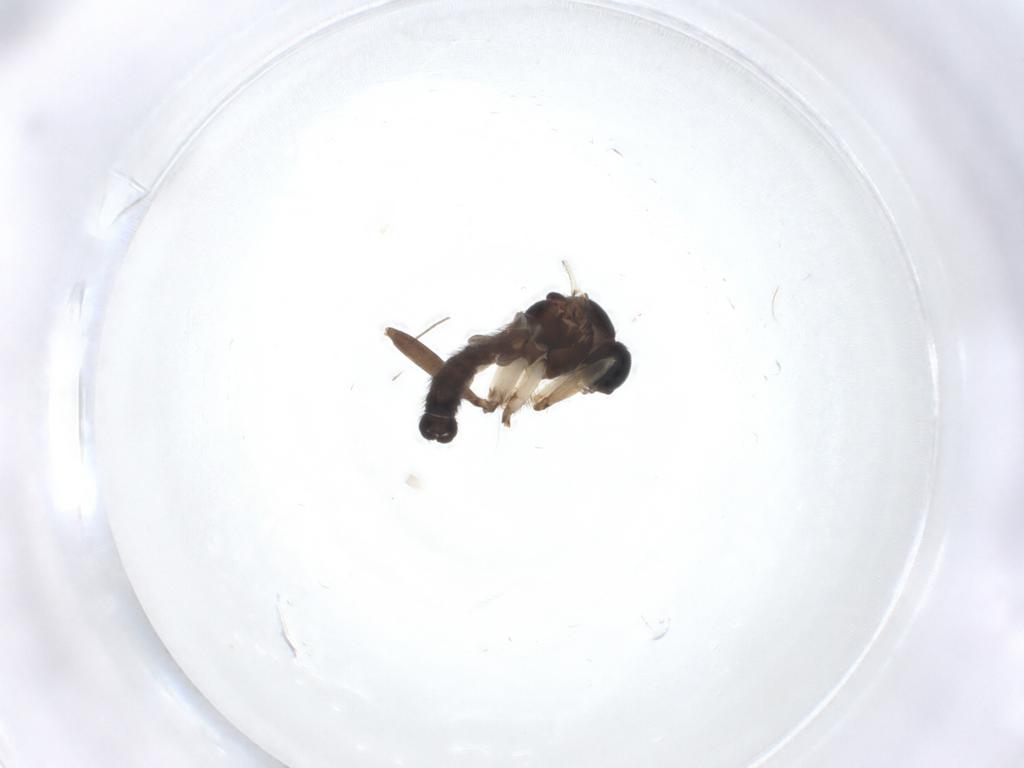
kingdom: Animalia
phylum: Arthropoda
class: Insecta
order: Diptera
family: Sciaridae
